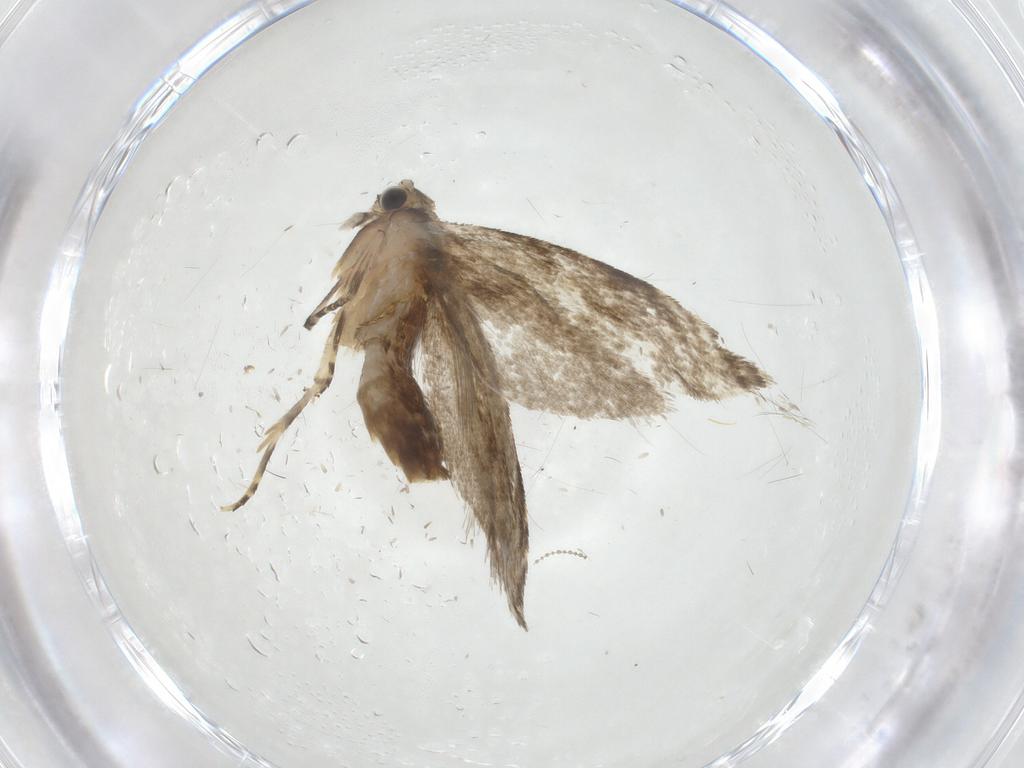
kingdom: Animalia
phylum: Arthropoda
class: Insecta
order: Lepidoptera
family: Tineidae
